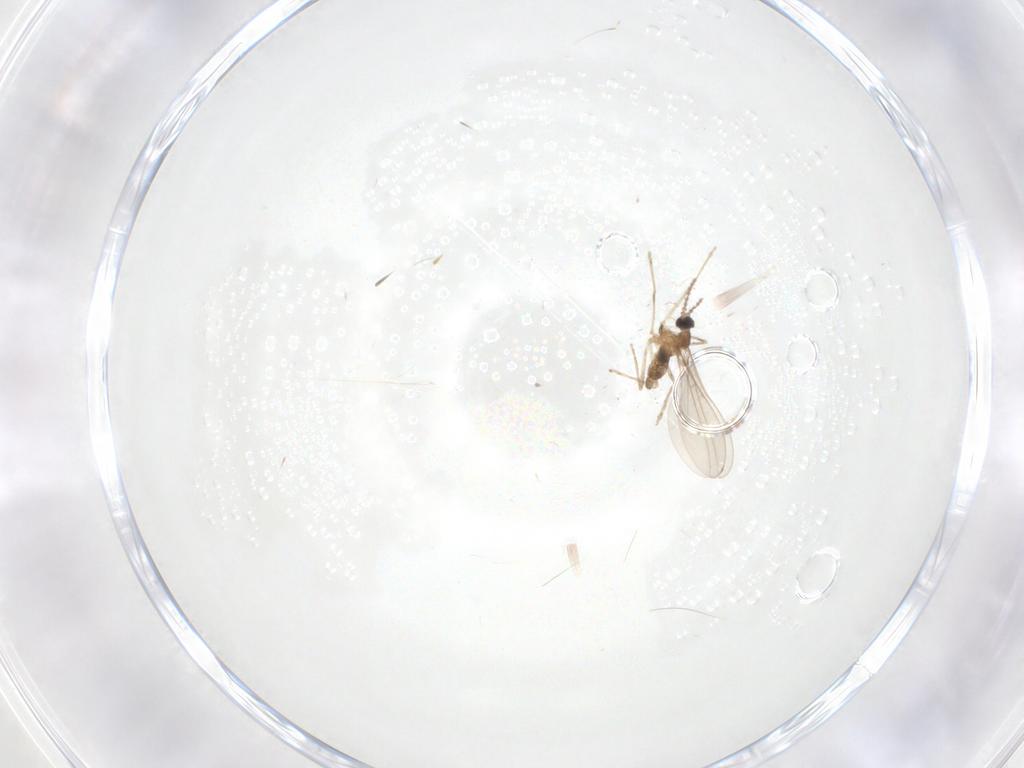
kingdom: Animalia
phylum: Arthropoda
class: Insecta
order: Diptera
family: Cecidomyiidae
